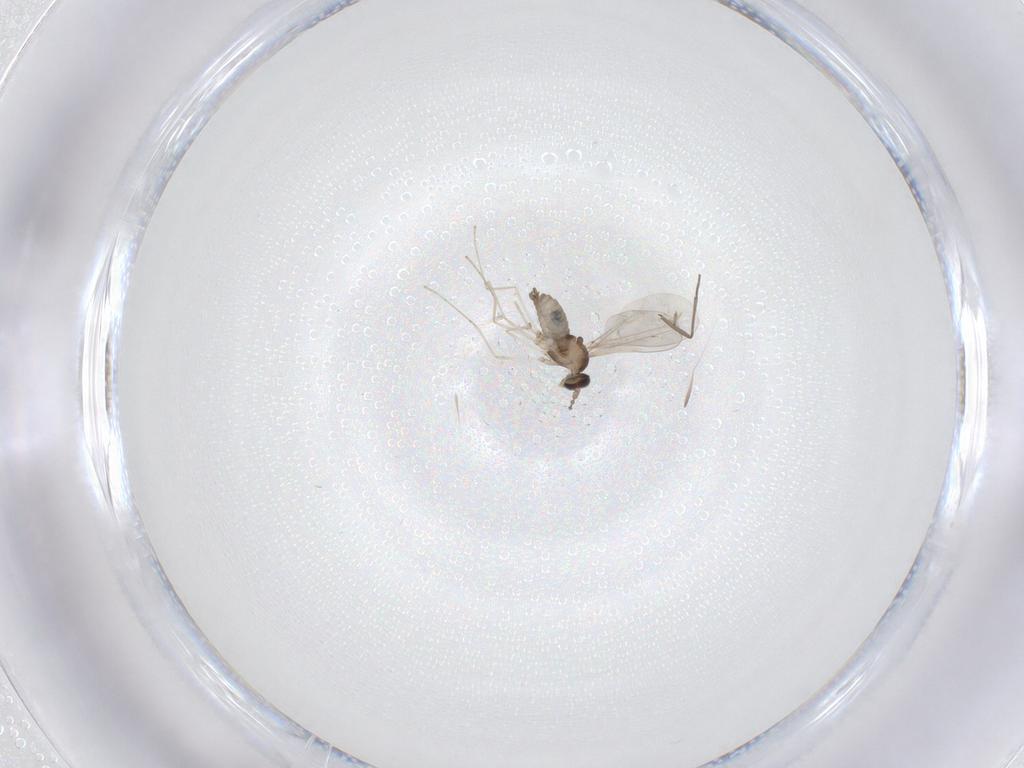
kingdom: Animalia
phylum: Arthropoda
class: Insecta
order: Diptera
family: Cecidomyiidae
